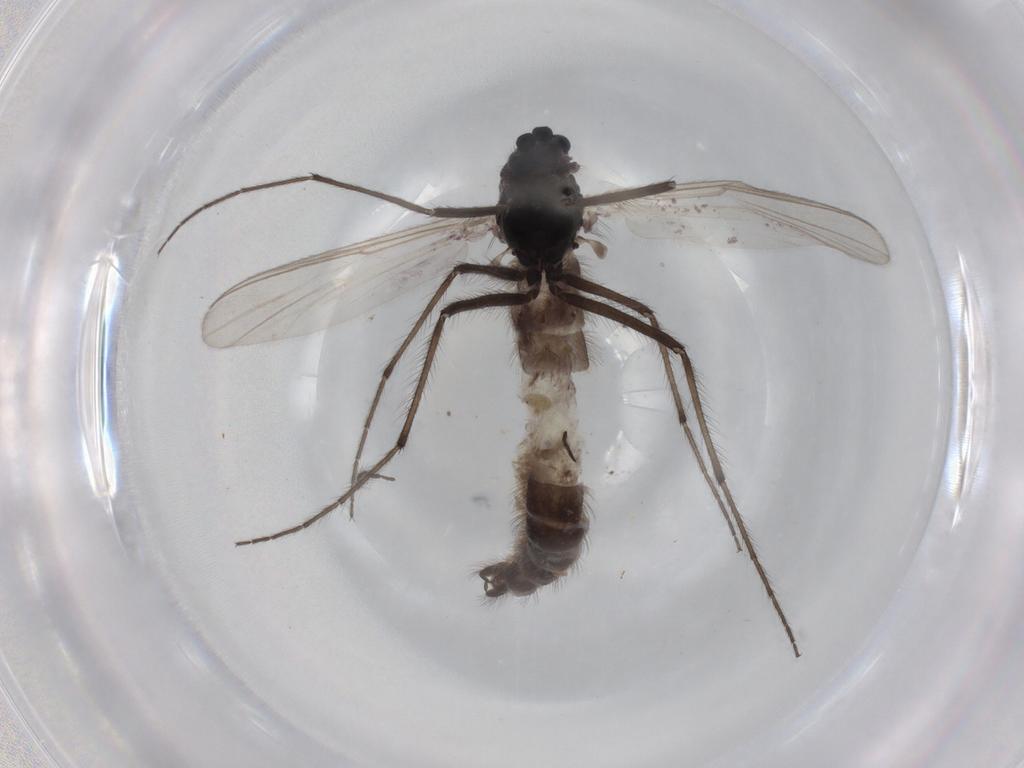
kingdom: Animalia
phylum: Arthropoda
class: Insecta
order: Diptera
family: Chironomidae
